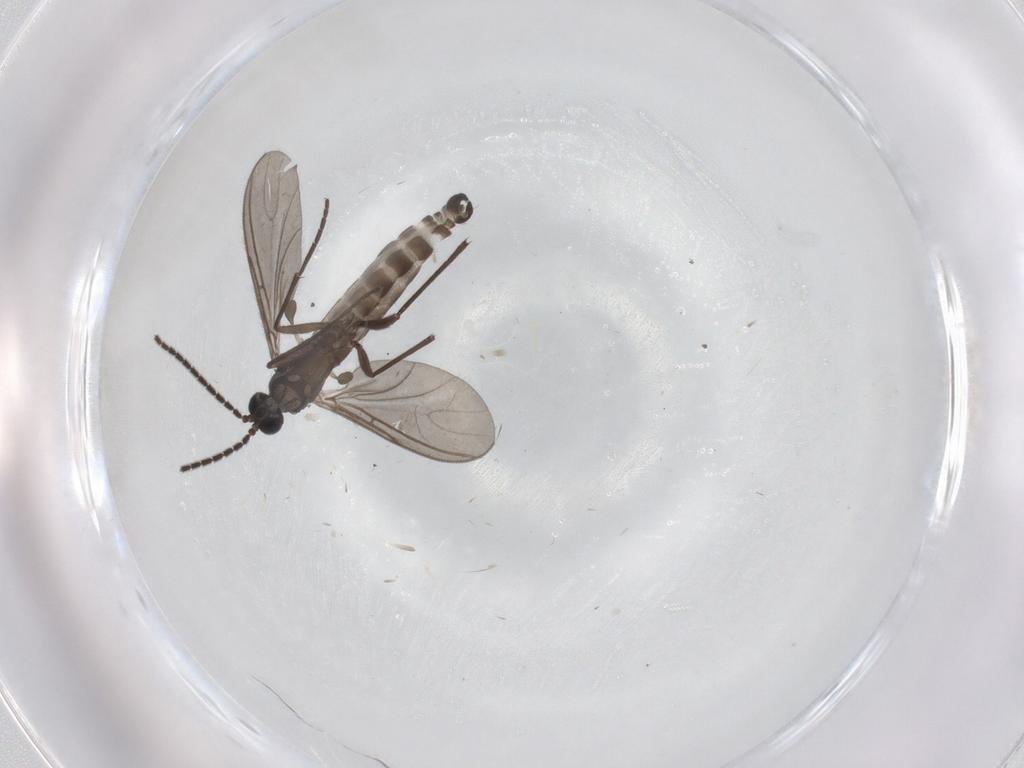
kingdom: Animalia
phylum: Arthropoda
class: Insecta
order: Diptera
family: Sciaridae
